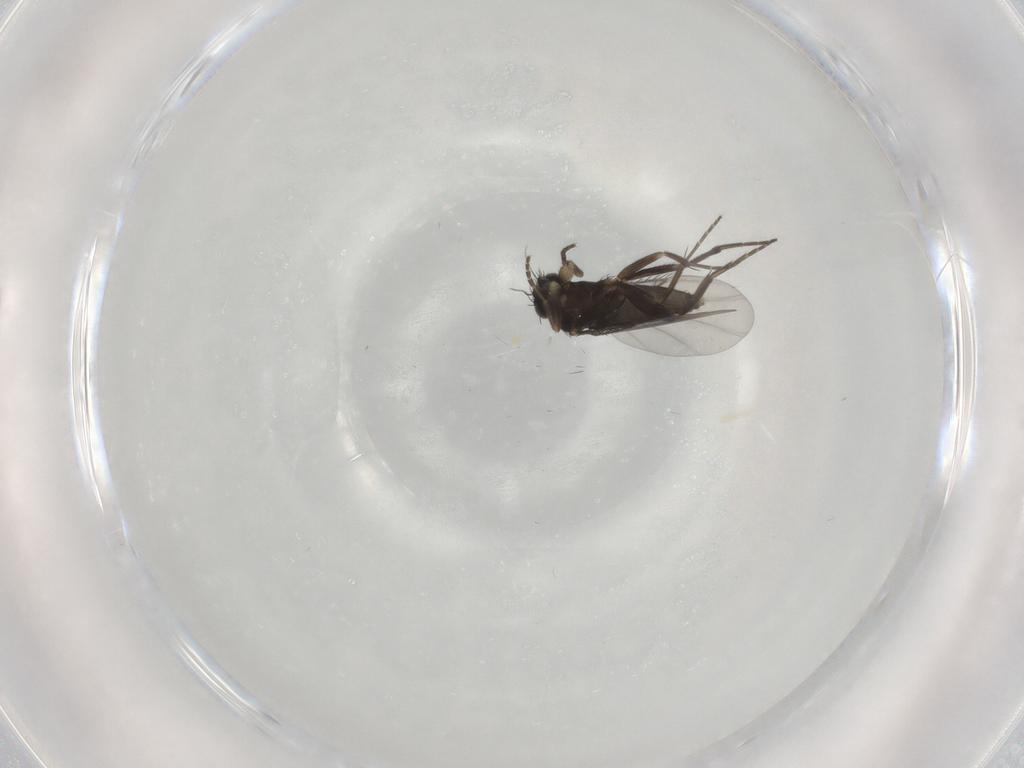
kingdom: Animalia
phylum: Arthropoda
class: Insecta
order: Diptera
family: Phoridae
